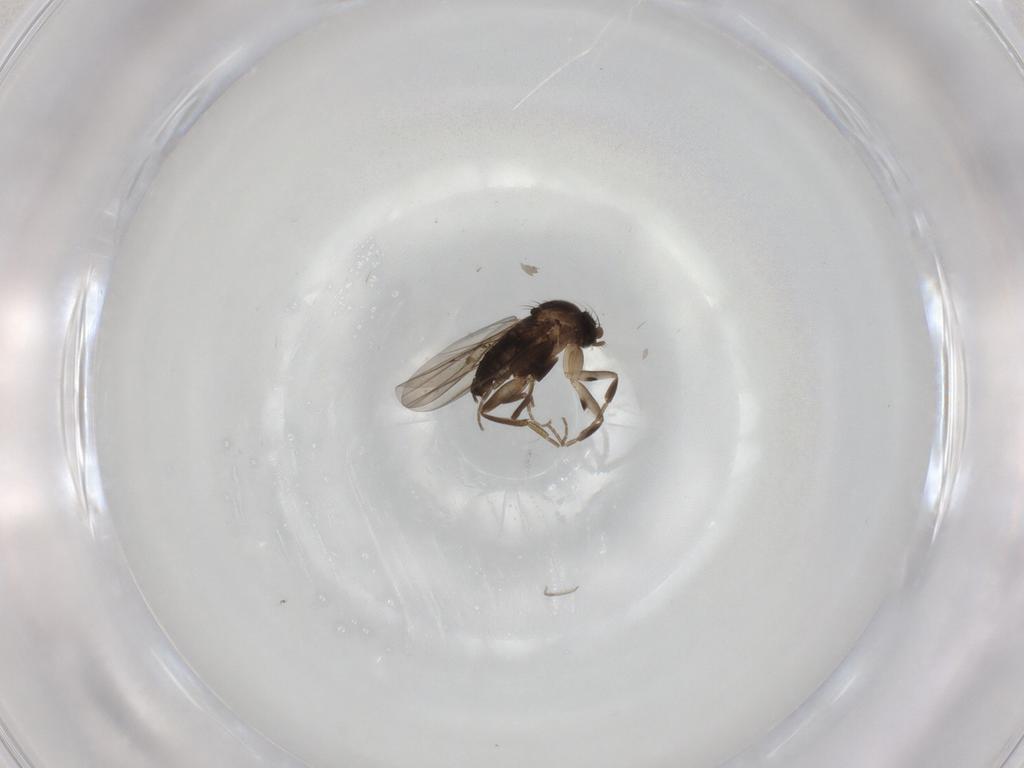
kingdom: Animalia
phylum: Arthropoda
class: Insecta
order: Diptera
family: Phoridae
